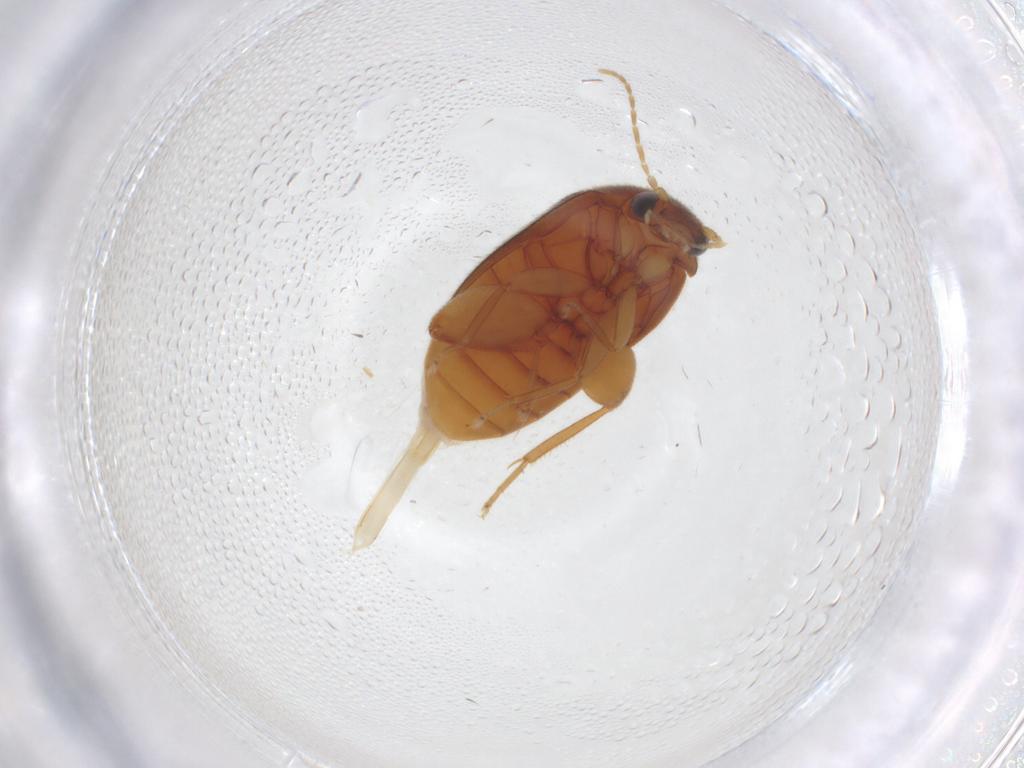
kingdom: Animalia
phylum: Arthropoda
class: Insecta
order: Coleoptera
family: Scirtidae
